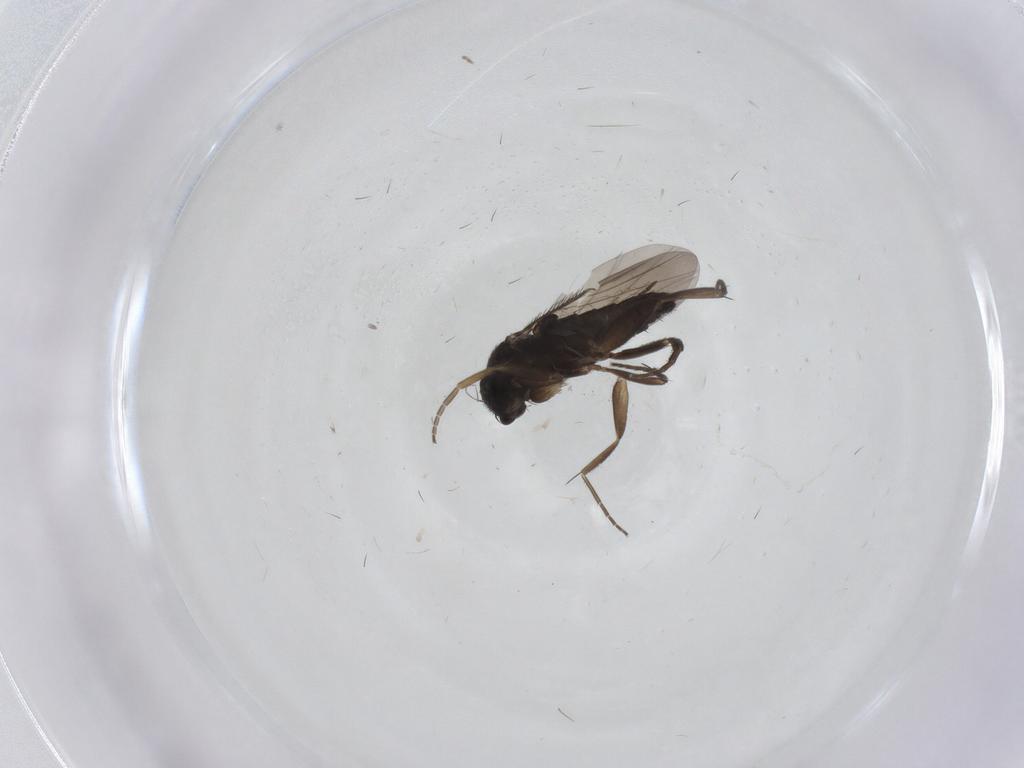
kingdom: Animalia
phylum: Arthropoda
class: Insecta
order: Diptera
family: Phoridae
